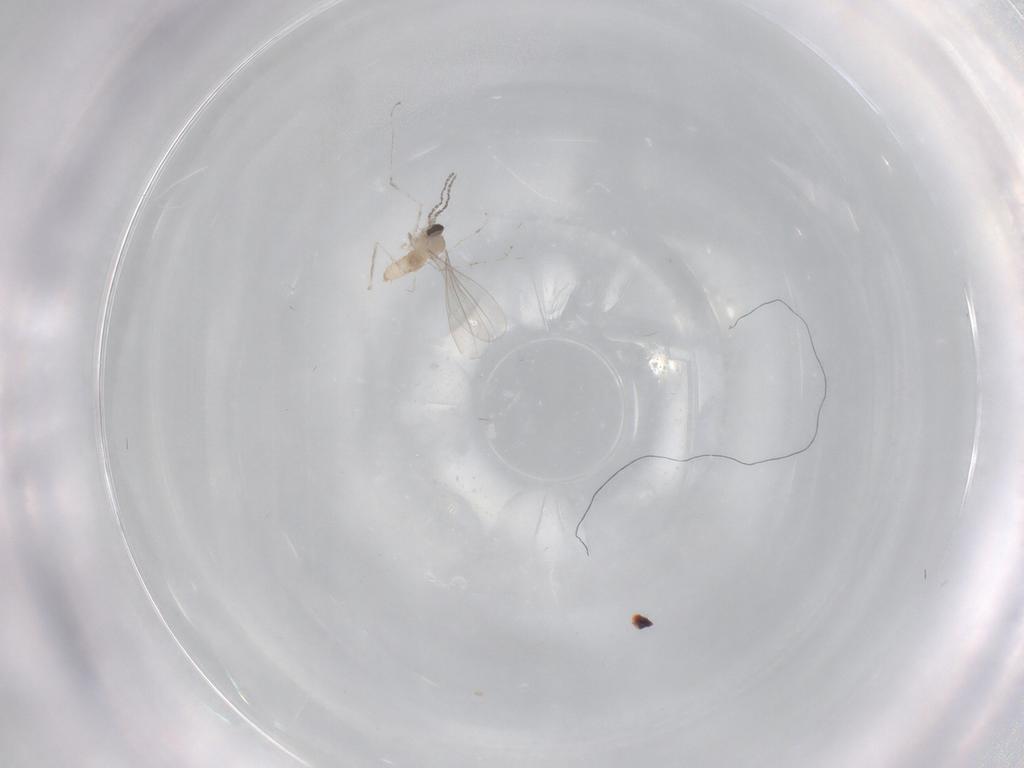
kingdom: Animalia
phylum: Arthropoda
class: Insecta
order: Diptera
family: Cecidomyiidae
